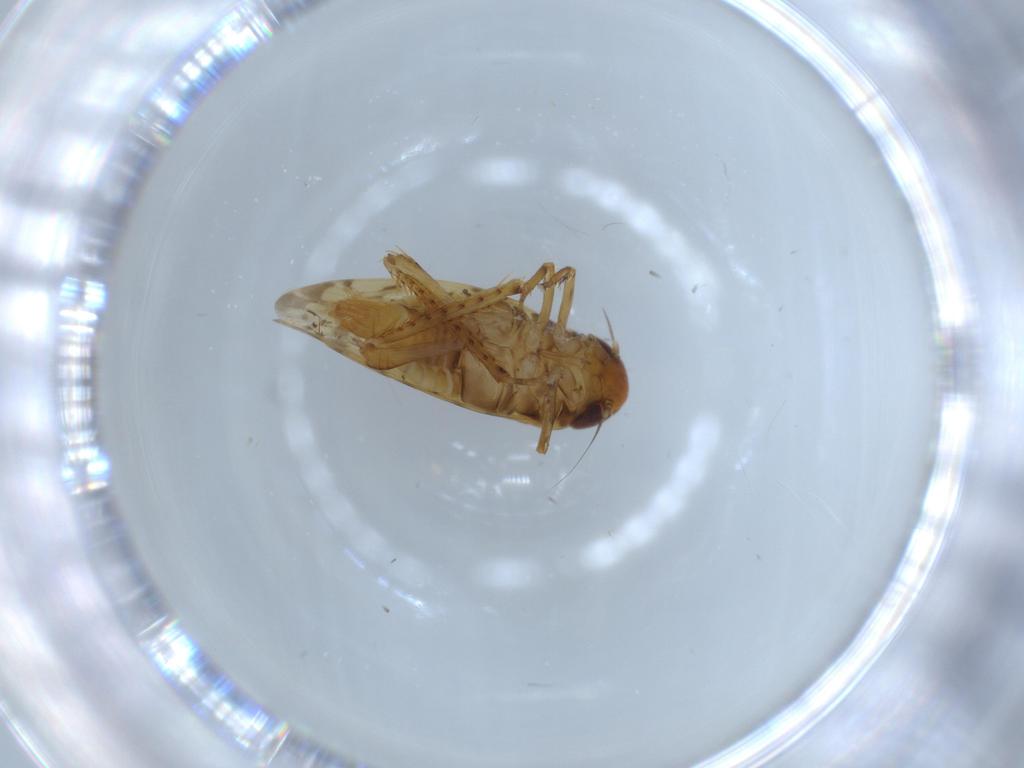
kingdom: Animalia
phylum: Arthropoda
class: Insecta
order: Hemiptera
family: Cicadellidae
